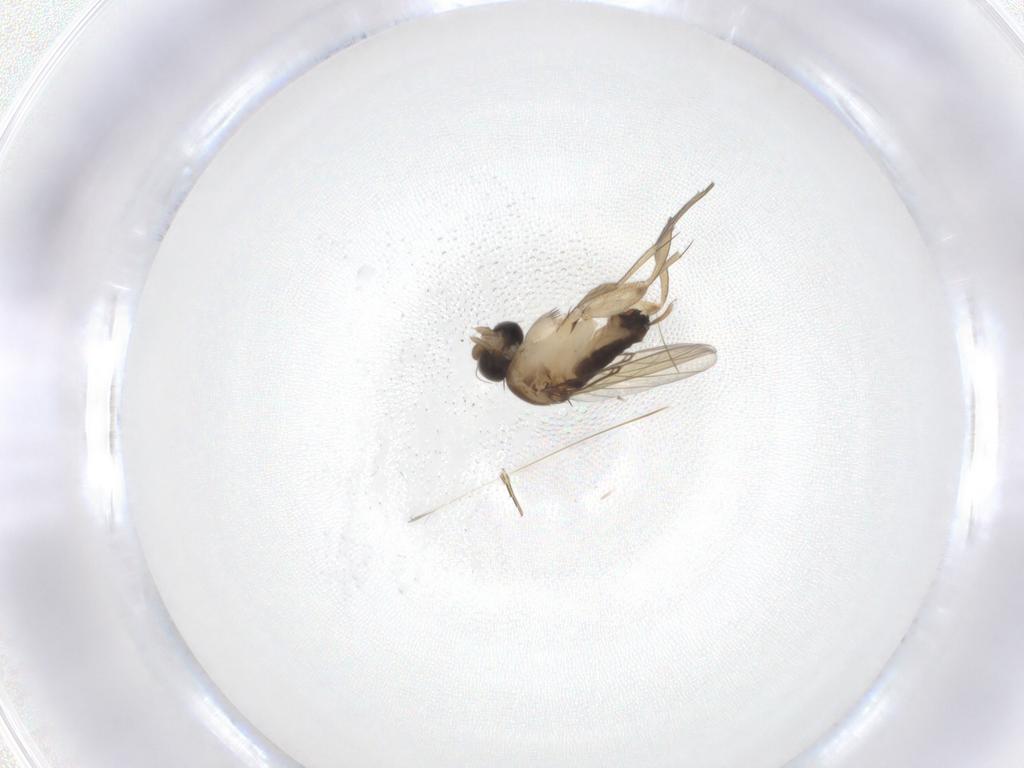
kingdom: Animalia
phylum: Arthropoda
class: Insecta
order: Diptera
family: Phoridae
